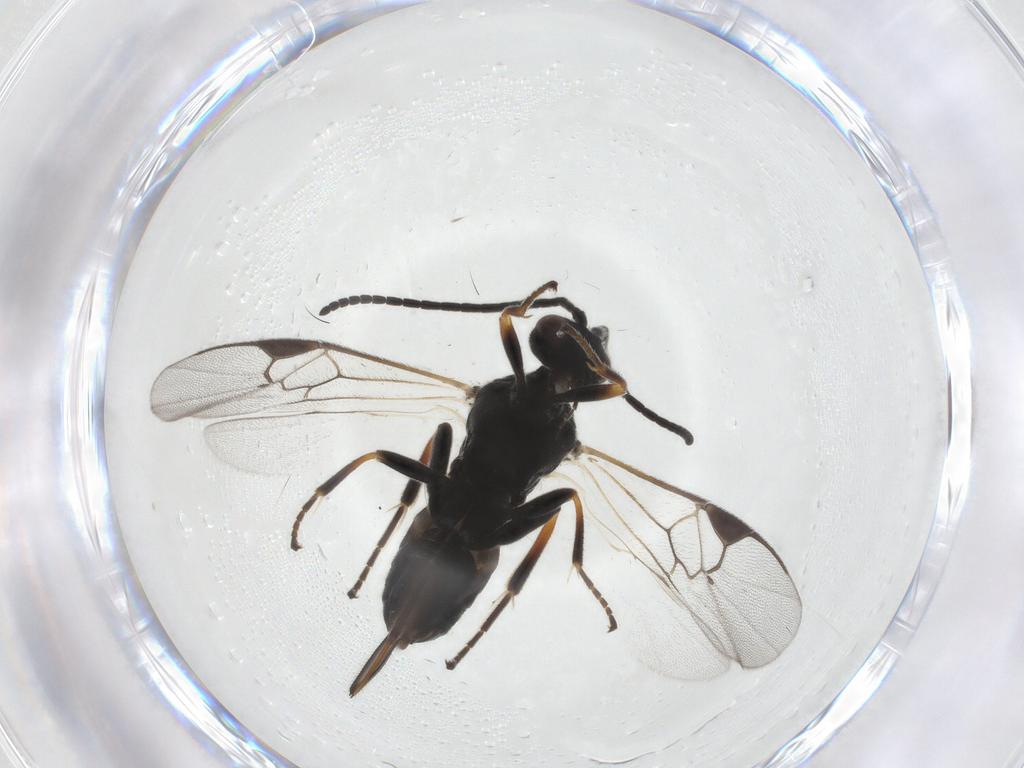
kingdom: Animalia
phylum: Arthropoda
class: Insecta
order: Hymenoptera
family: Braconidae
